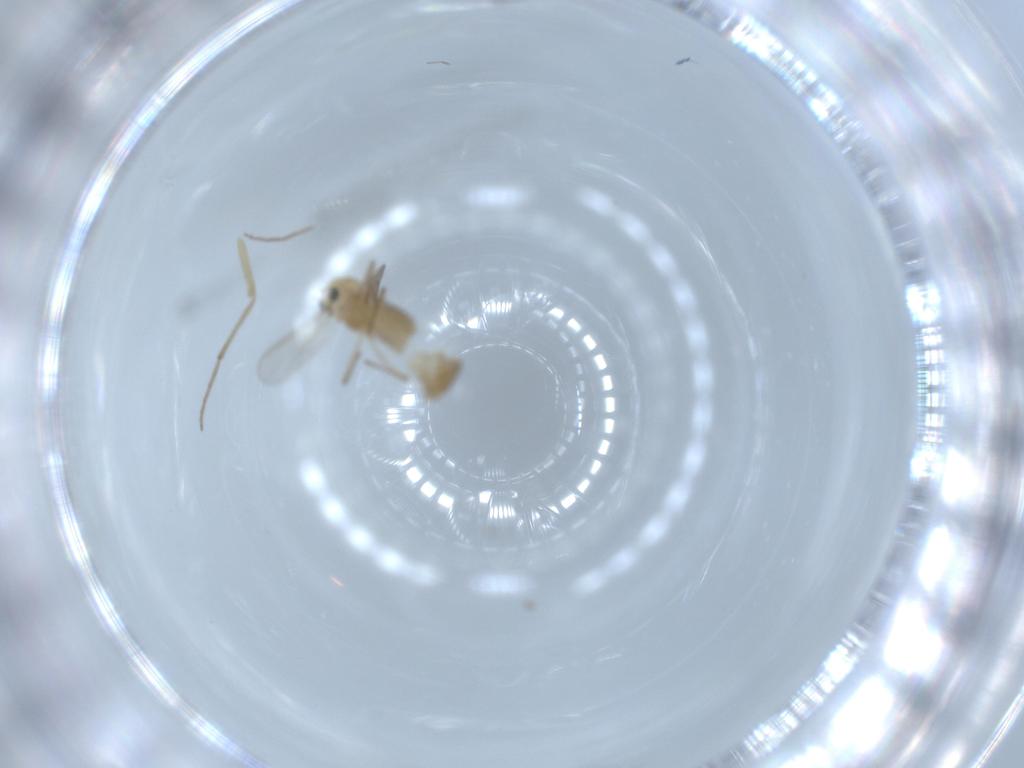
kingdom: Animalia
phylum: Arthropoda
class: Insecta
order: Diptera
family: Chironomidae
